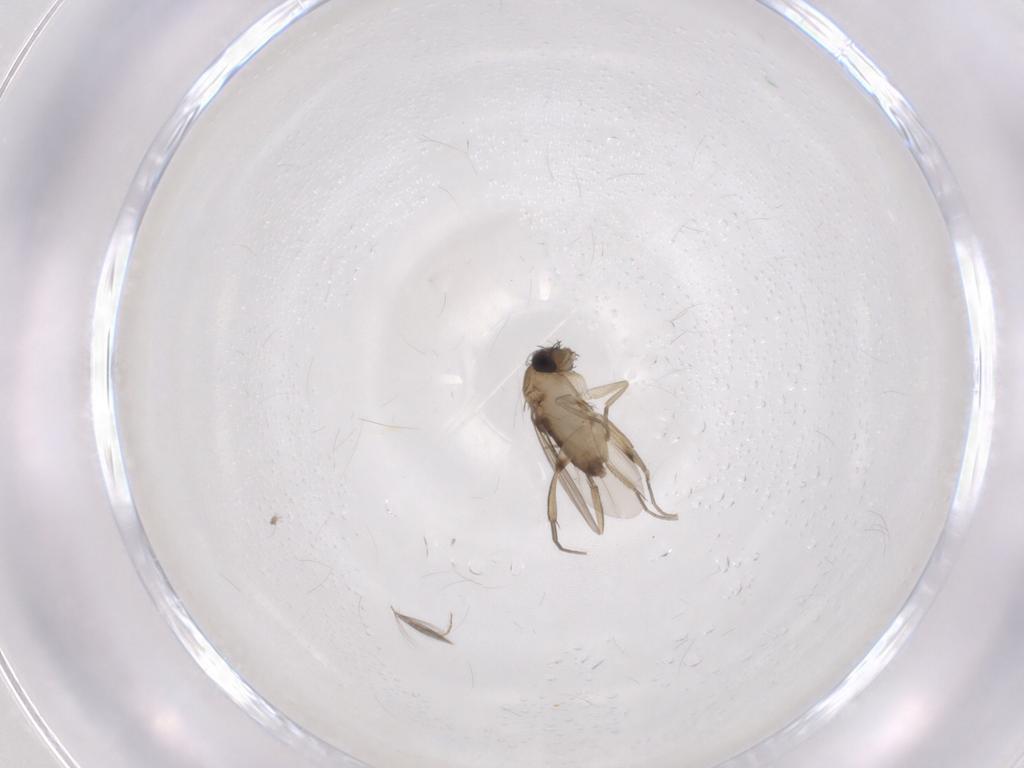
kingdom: Animalia
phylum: Arthropoda
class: Insecta
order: Diptera
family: Phoridae
